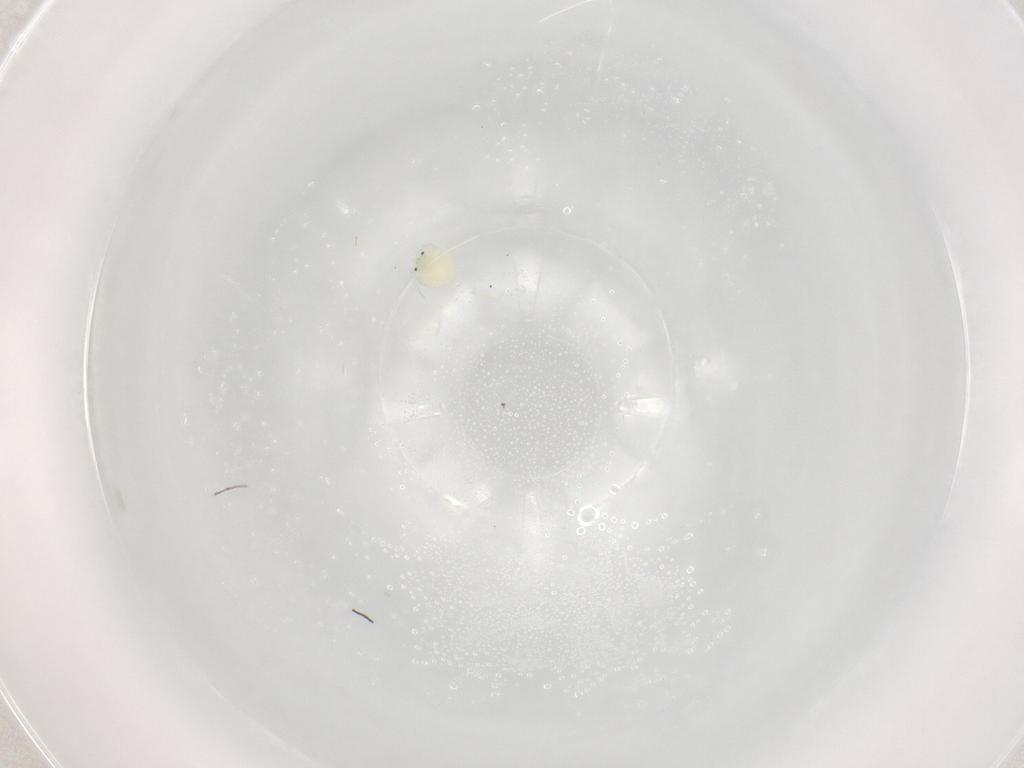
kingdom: Animalia
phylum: Arthropoda
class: Arachnida
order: Trombidiformes
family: Arrenuridae
